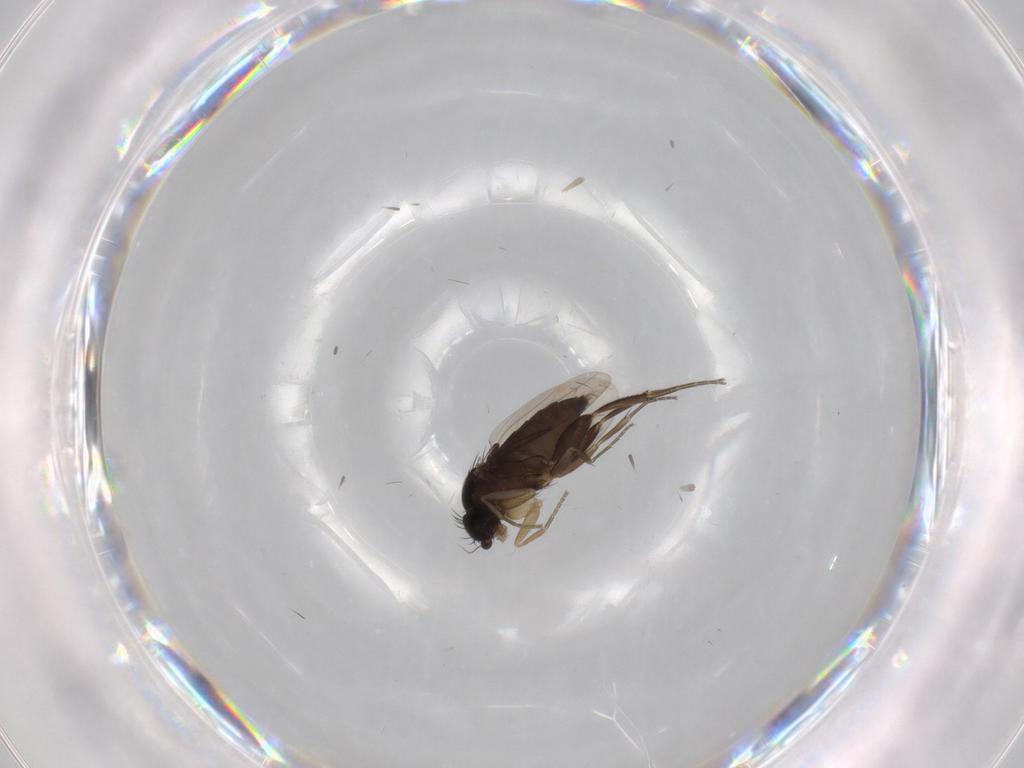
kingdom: Animalia
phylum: Arthropoda
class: Insecta
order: Diptera
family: Phoridae
